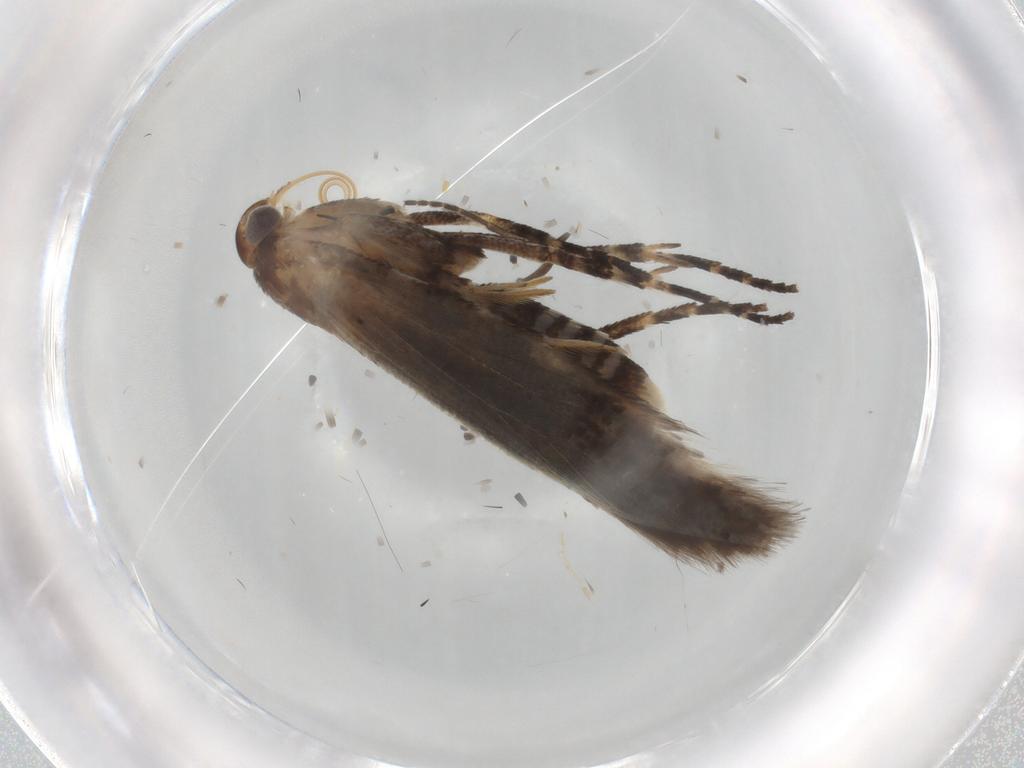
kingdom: Animalia
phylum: Arthropoda
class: Insecta
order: Lepidoptera
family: Gelechiidae
